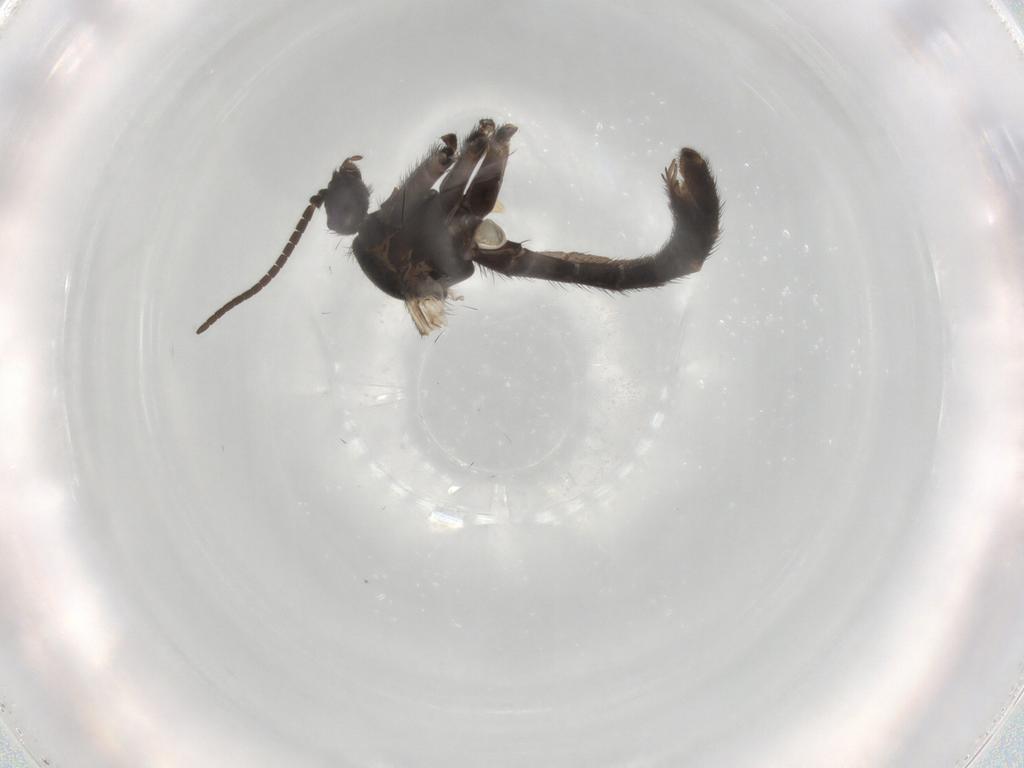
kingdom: Animalia
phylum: Arthropoda
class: Insecta
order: Diptera
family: Keroplatidae
